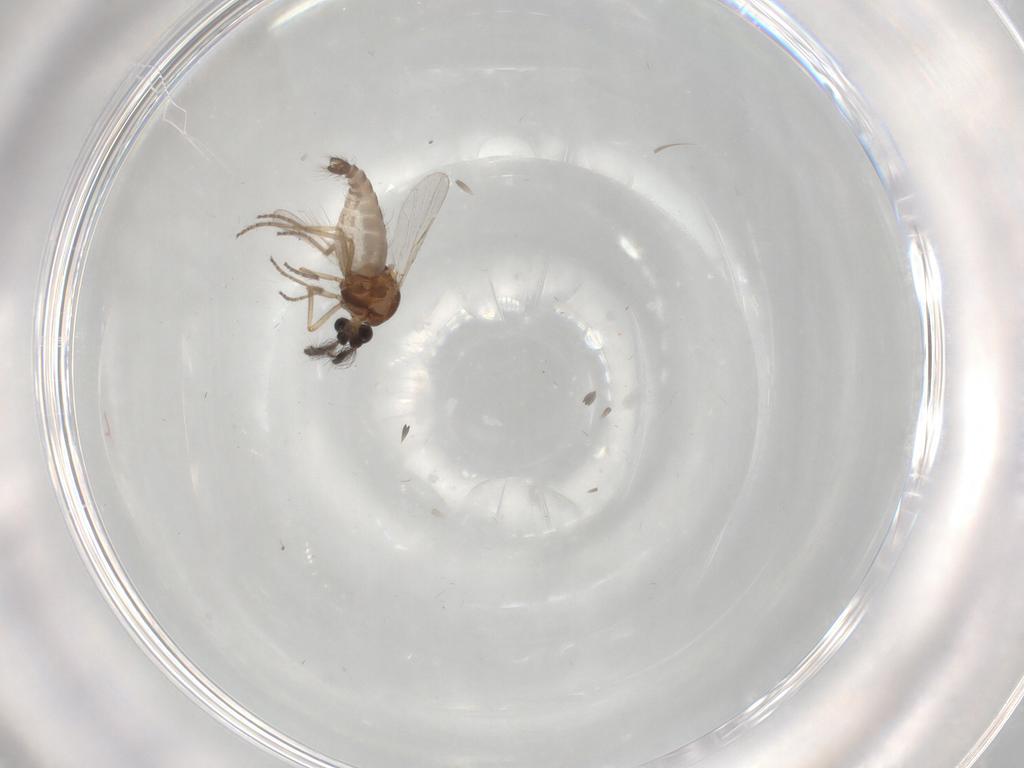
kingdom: Animalia
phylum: Arthropoda
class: Insecta
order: Diptera
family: Ceratopogonidae
